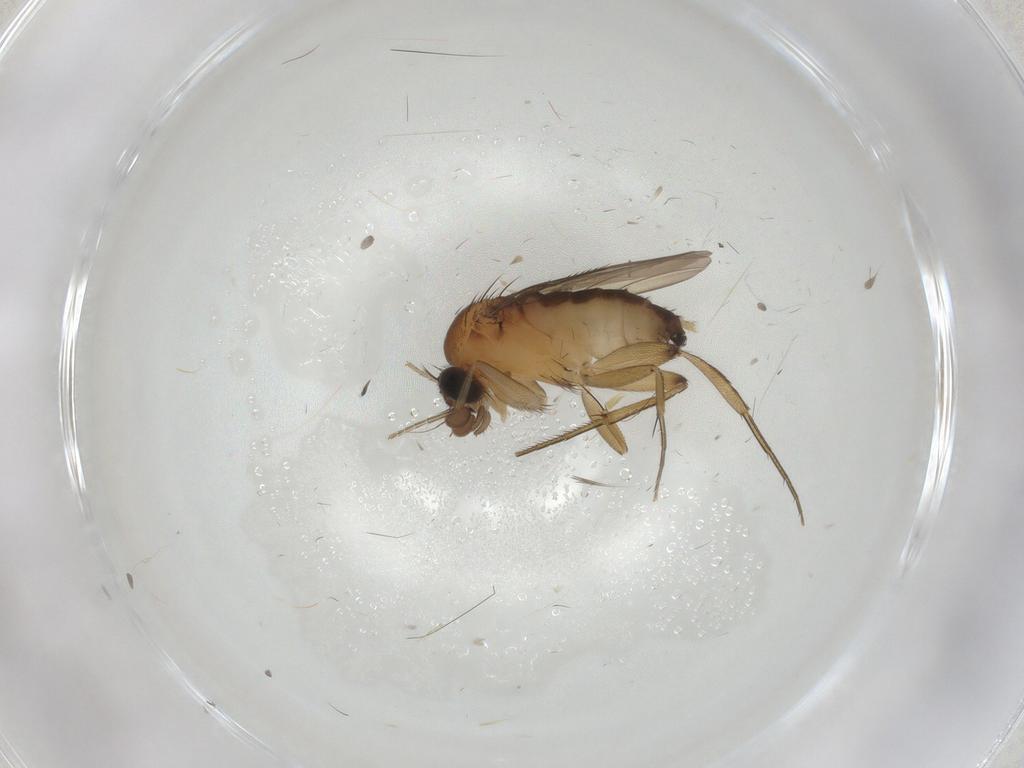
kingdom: Animalia
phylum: Arthropoda
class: Insecta
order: Diptera
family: Phoridae
